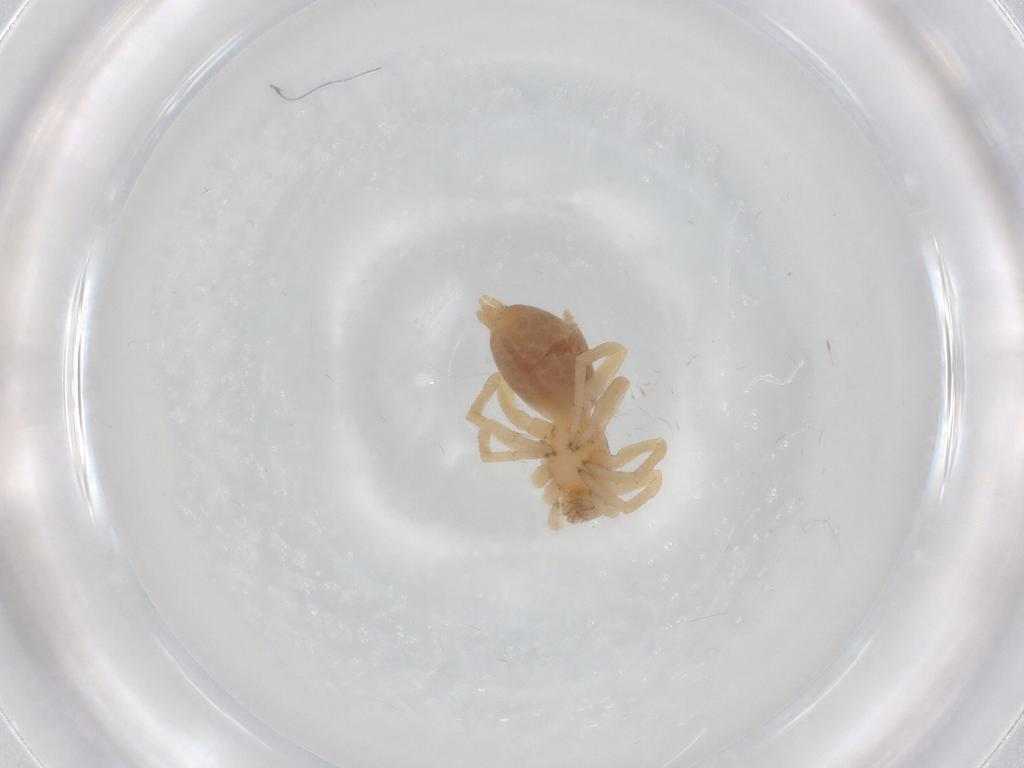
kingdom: Animalia
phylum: Arthropoda
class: Arachnida
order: Araneae
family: Clubionidae
